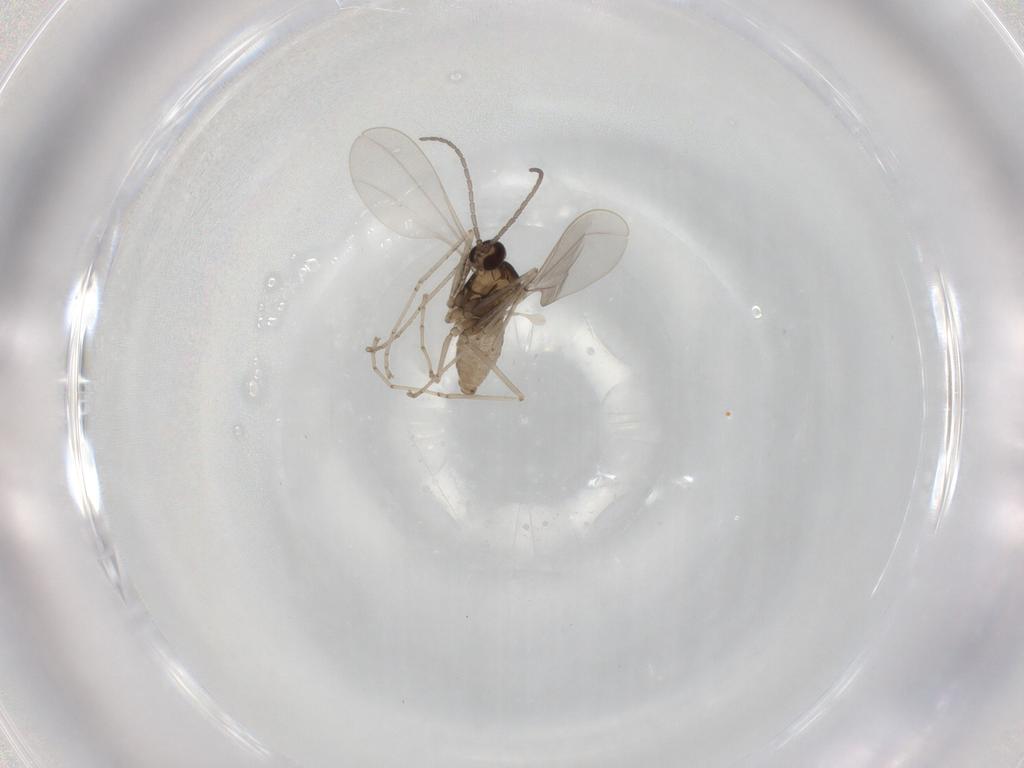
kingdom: Animalia
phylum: Arthropoda
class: Insecta
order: Diptera
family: Cecidomyiidae
